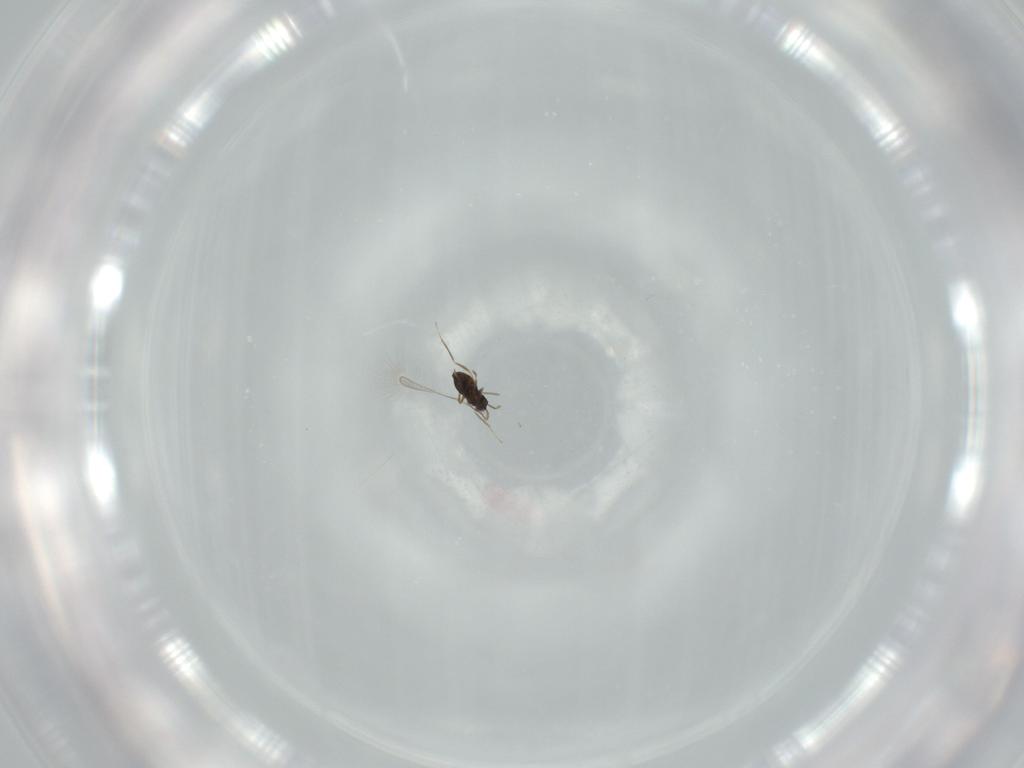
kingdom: Animalia
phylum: Arthropoda
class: Insecta
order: Hymenoptera
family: Mymaridae
